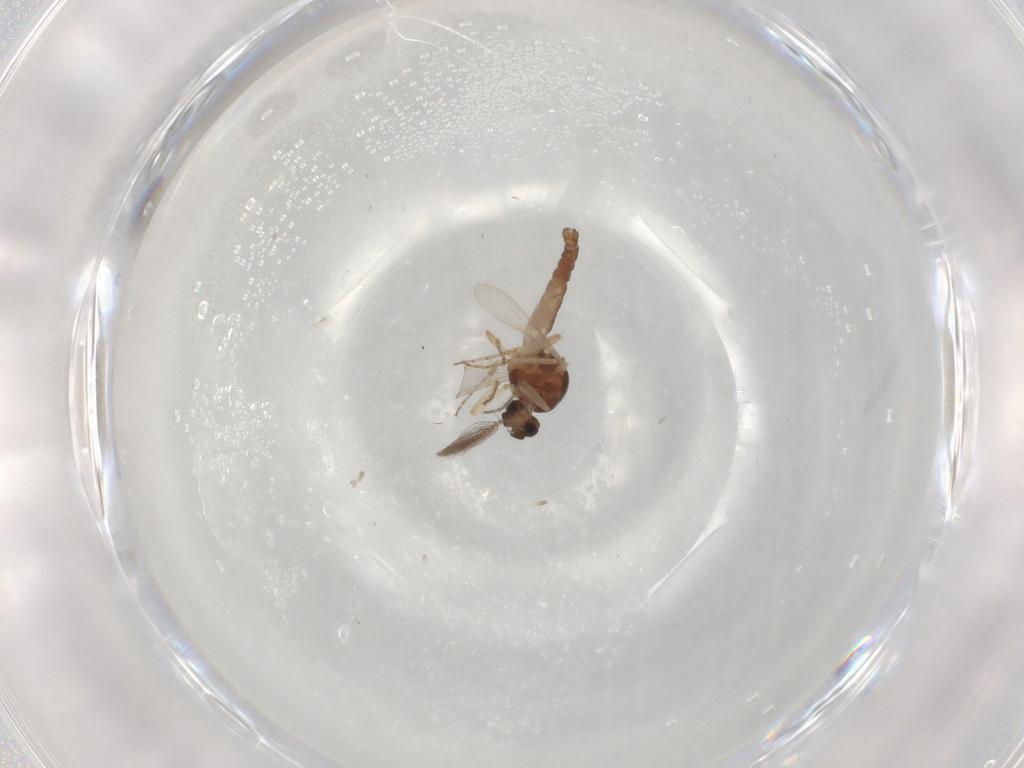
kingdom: Animalia
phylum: Arthropoda
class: Insecta
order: Diptera
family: Ceratopogonidae
